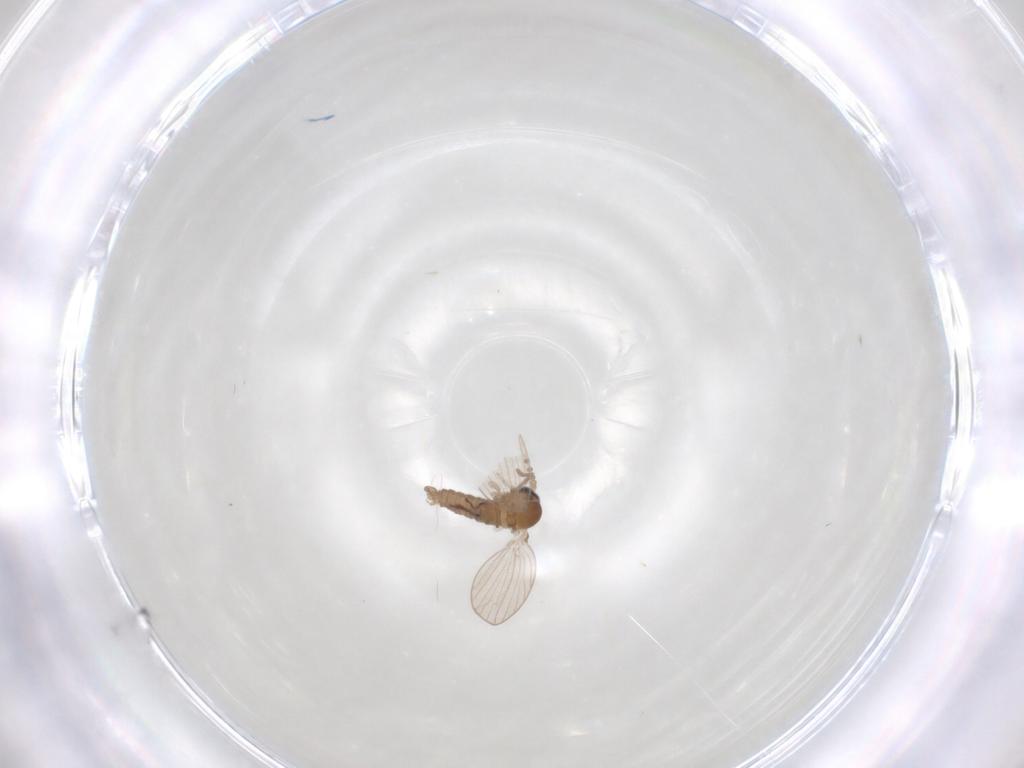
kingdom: Animalia
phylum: Arthropoda
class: Insecta
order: Diptera
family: Psychodidae
